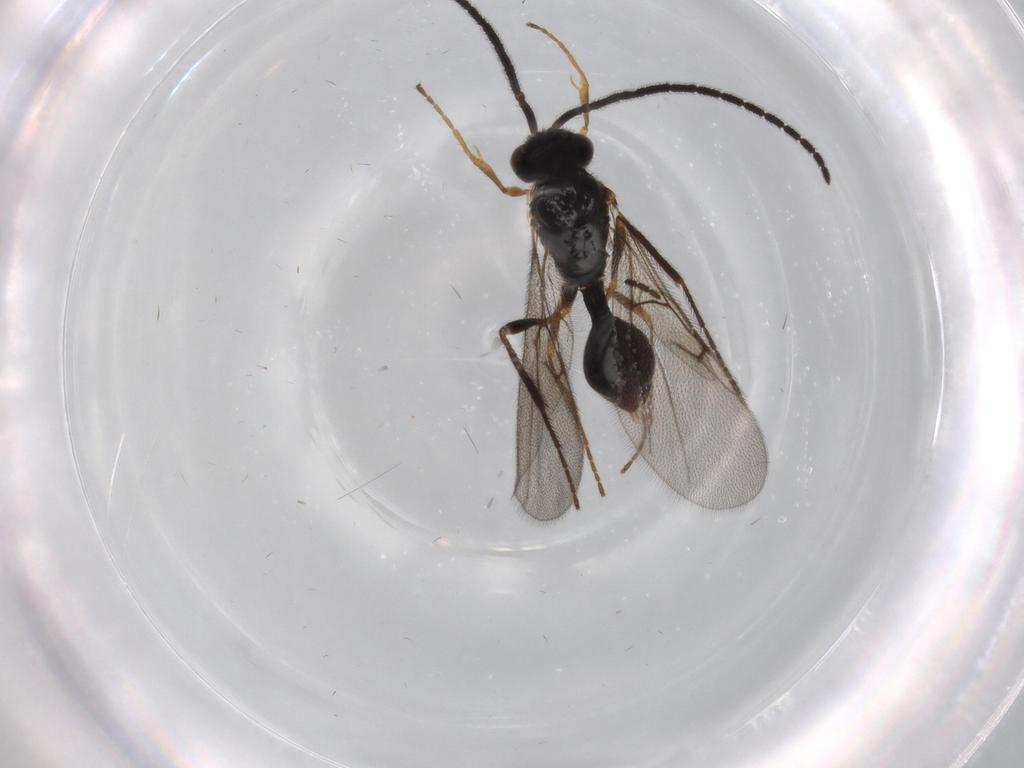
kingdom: Animalia
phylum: Arthropoda
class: Insecta
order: Hymenoptera
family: Diapriidae
